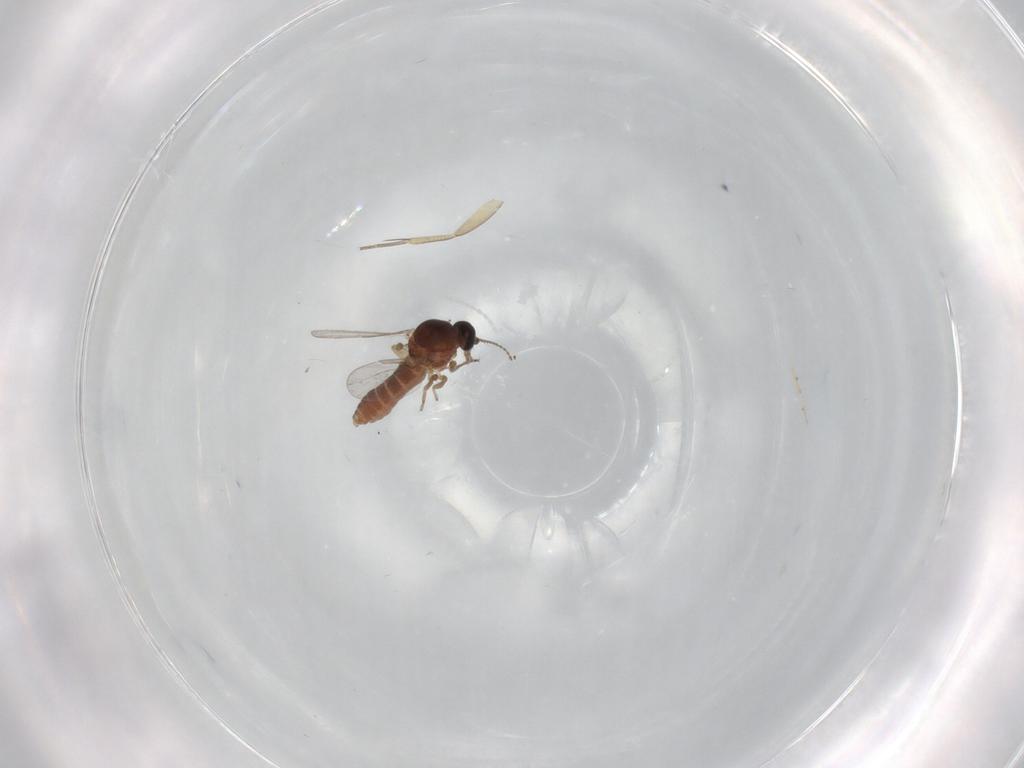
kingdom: Animalia
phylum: Arthropoda
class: Insecta
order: Diptera
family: Ceratopogonidae
